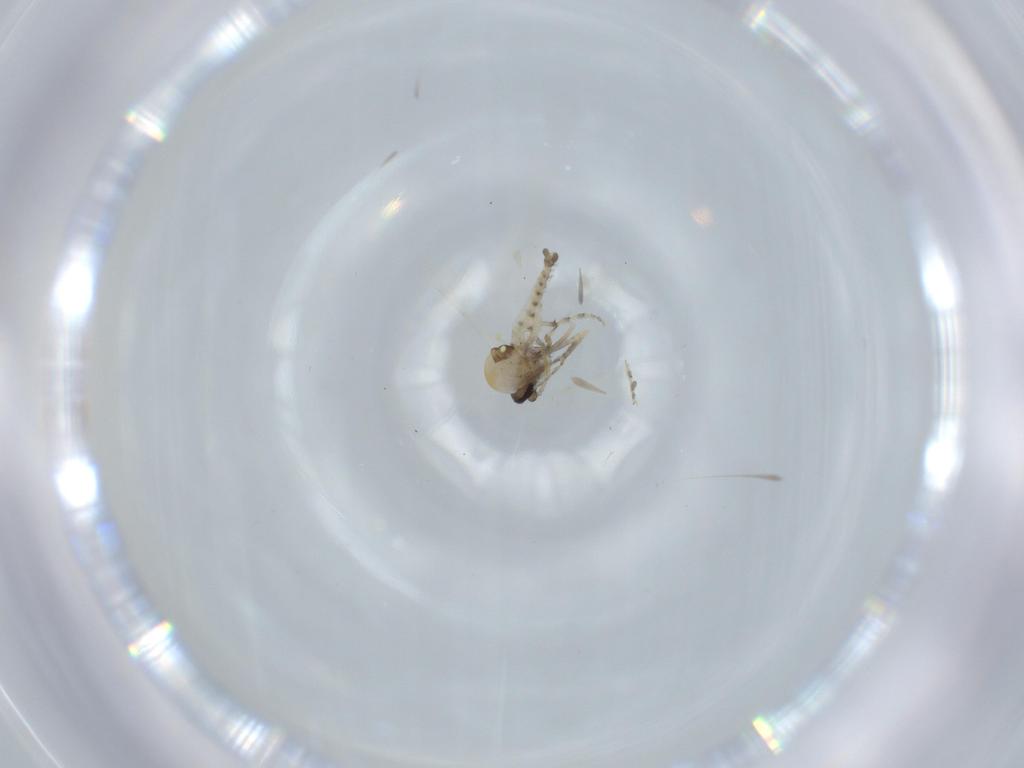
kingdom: Animalia
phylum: Arthropoda
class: Insecta
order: Diptera
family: Ceratopogonidae
